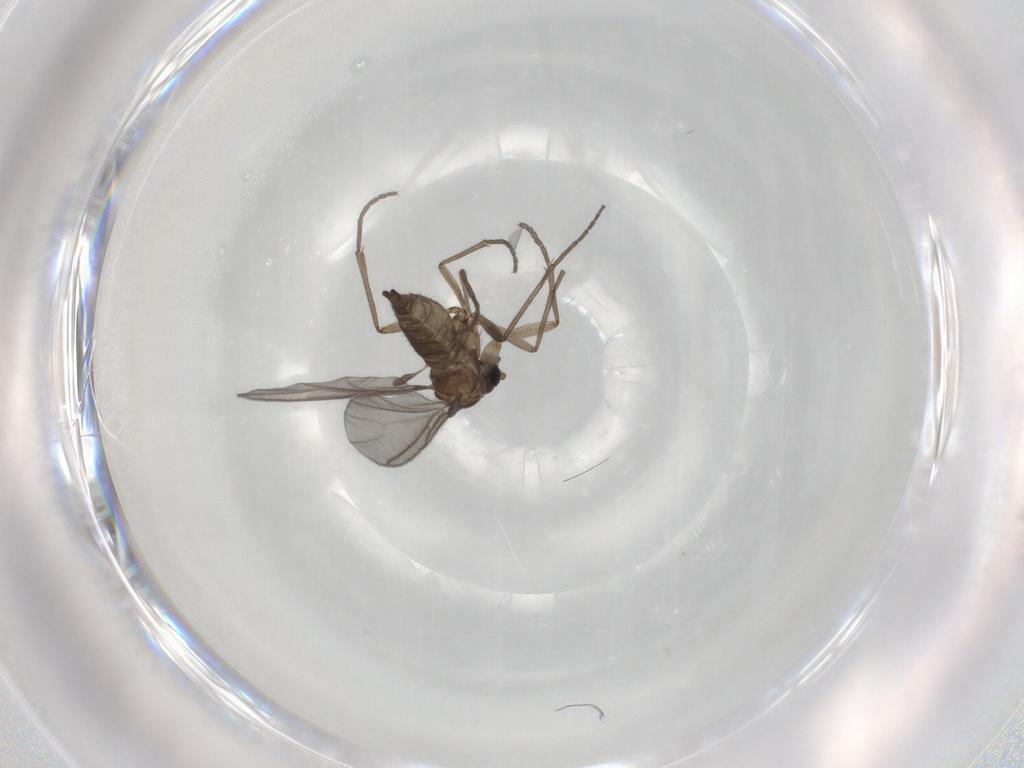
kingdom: Animalia
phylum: Arthropoda
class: Insecta
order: Diptera
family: Sciaridae
